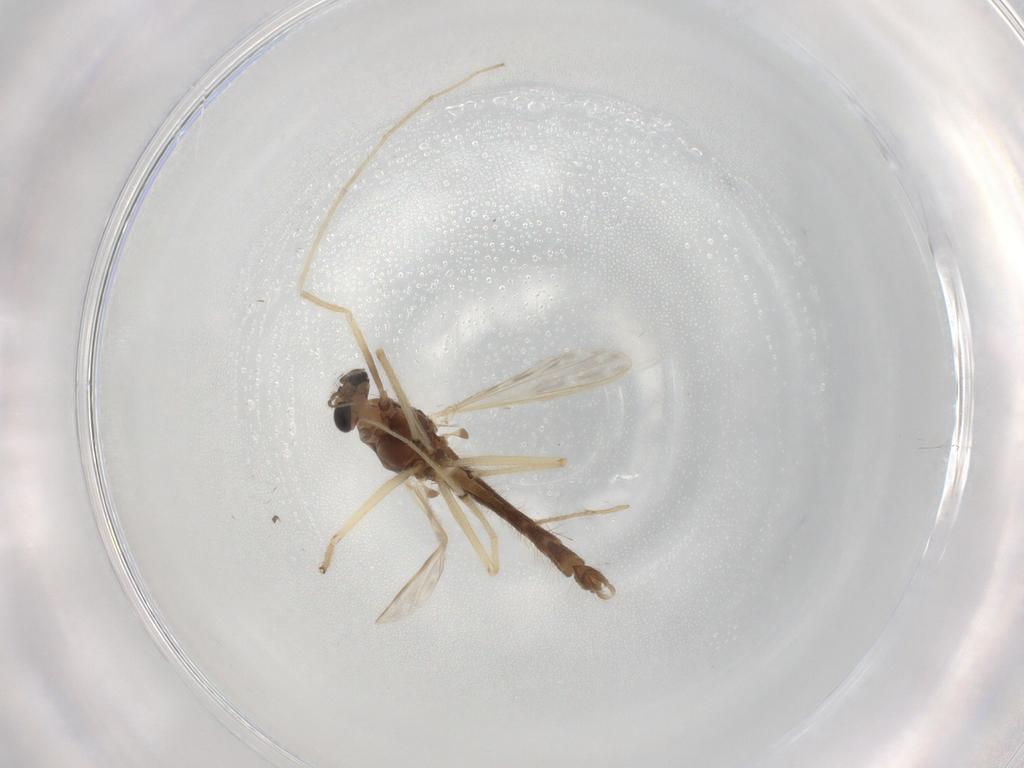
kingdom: Animalia
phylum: Arthropoda
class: Insecta
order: Diptera
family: Chironomidae
